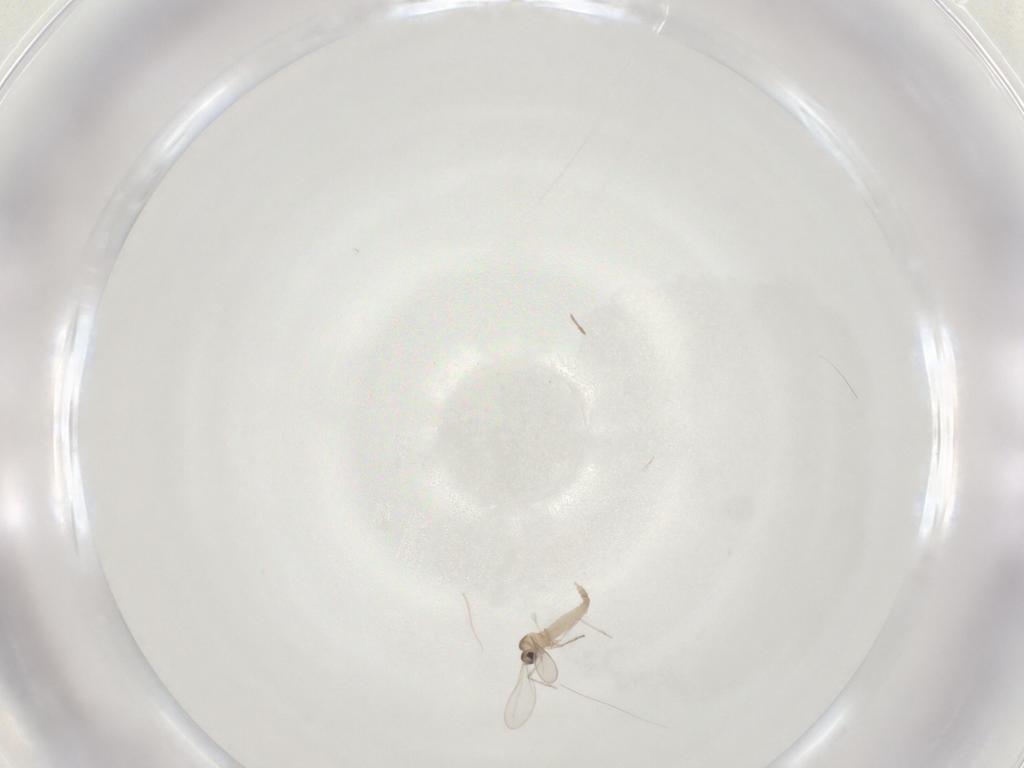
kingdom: Animalia
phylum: Arthropoda
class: Insecta
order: Diptera
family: Cecidomyiidae
